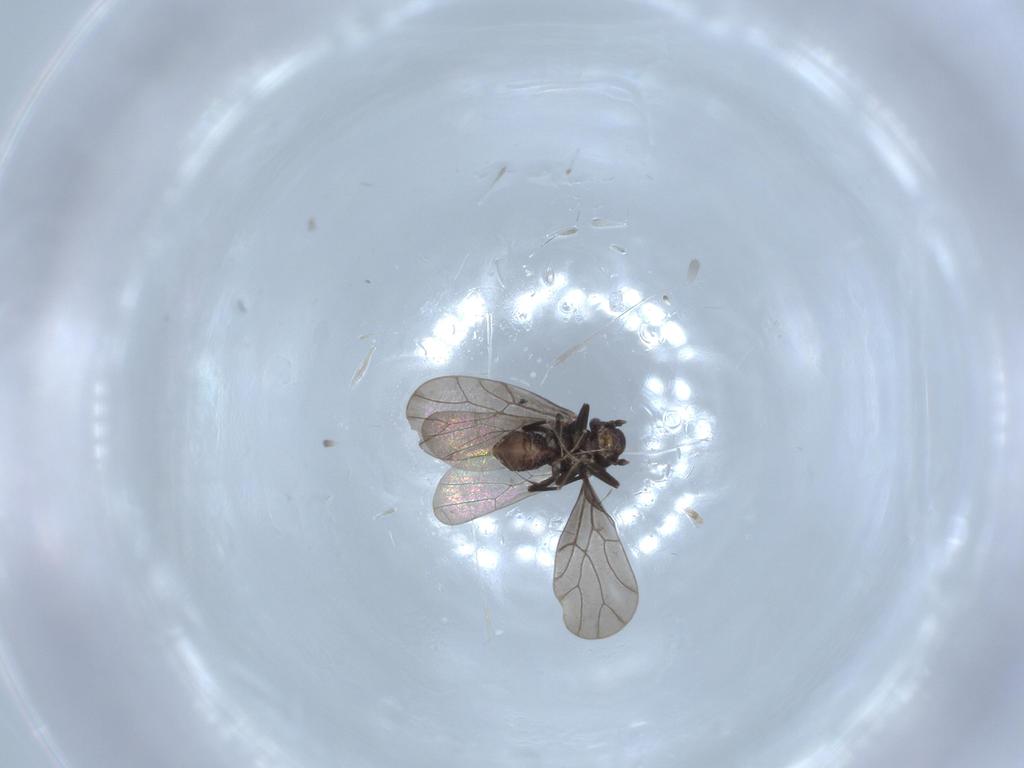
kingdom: Animalia
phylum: Arthropoda
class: Insecta
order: Psocodea
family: Lepidopsocidae
